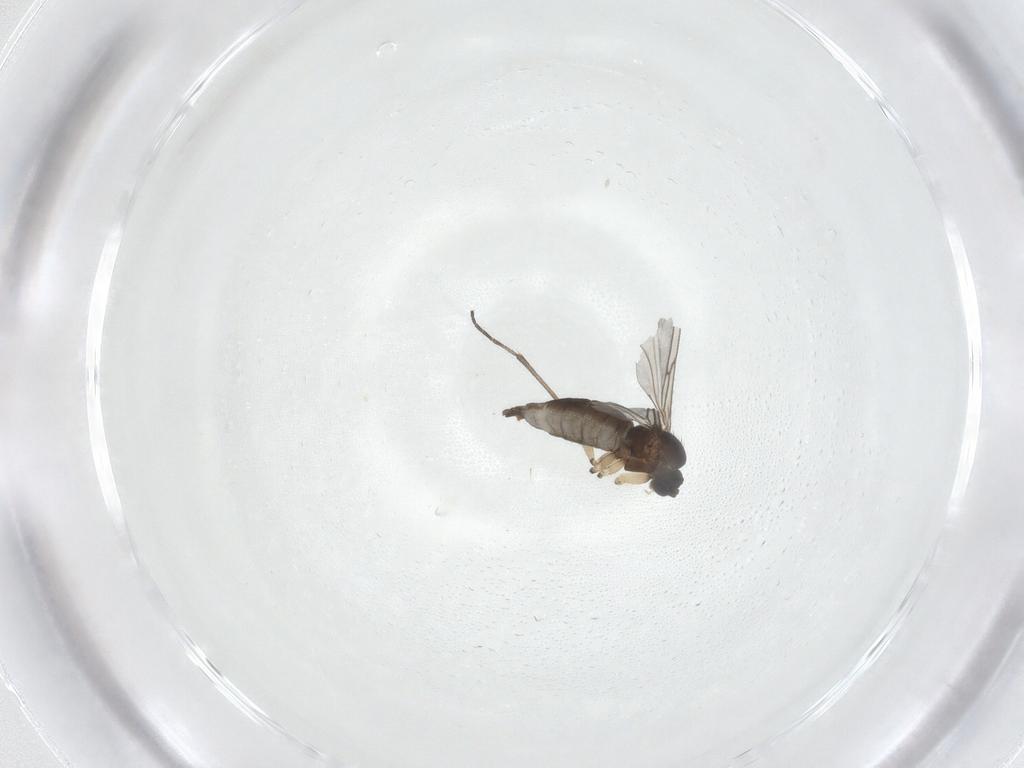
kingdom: Animalia
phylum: Arthropoda
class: Insecta
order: Diptera
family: Sciaridae
